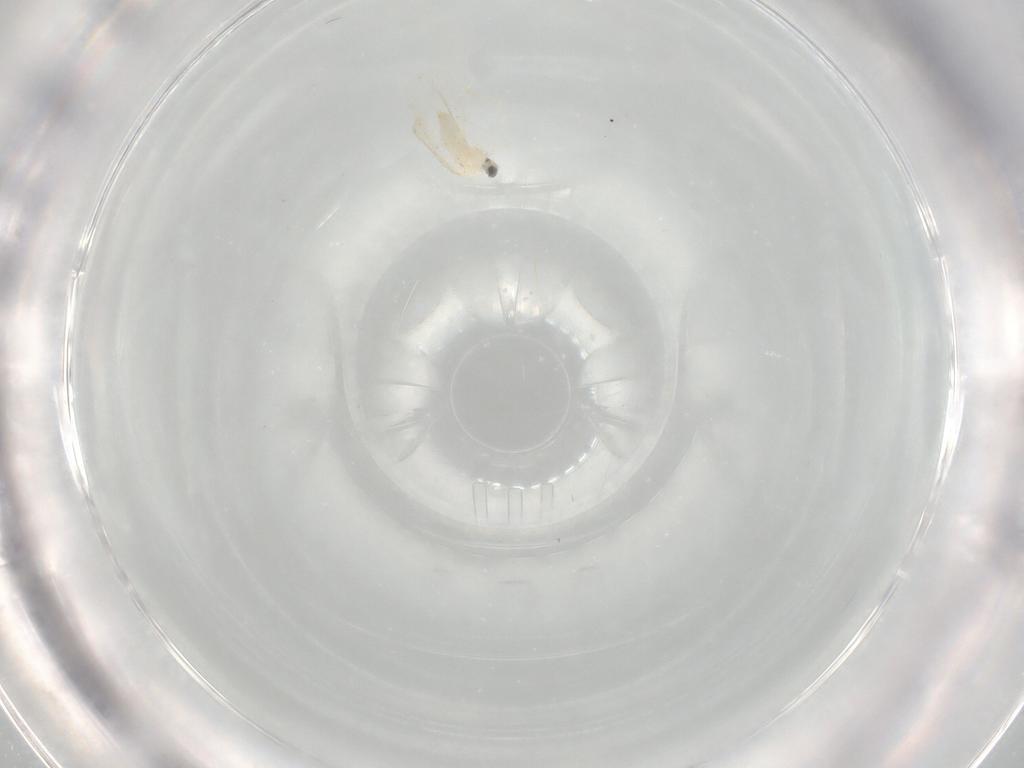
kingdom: Animalia
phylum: Arthropoda
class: Insecta
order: Diptera
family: Cecidomyiidae
